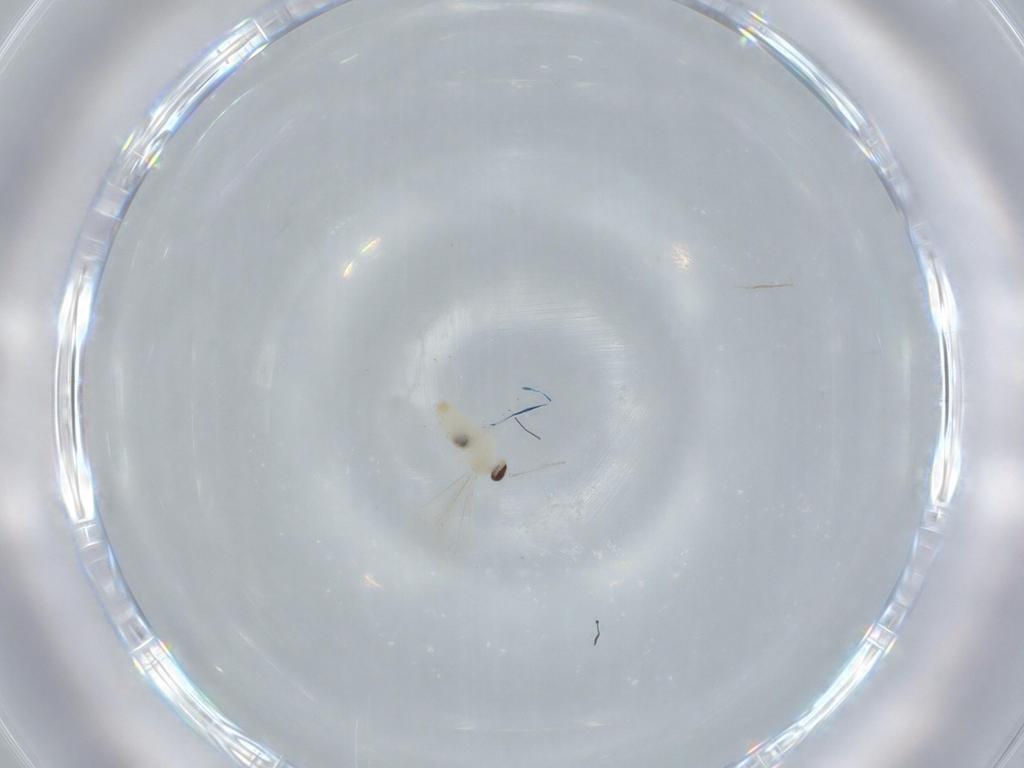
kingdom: Animalia
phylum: Arthropoda
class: Insecta
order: Diptera
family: Cecidomyiidae
